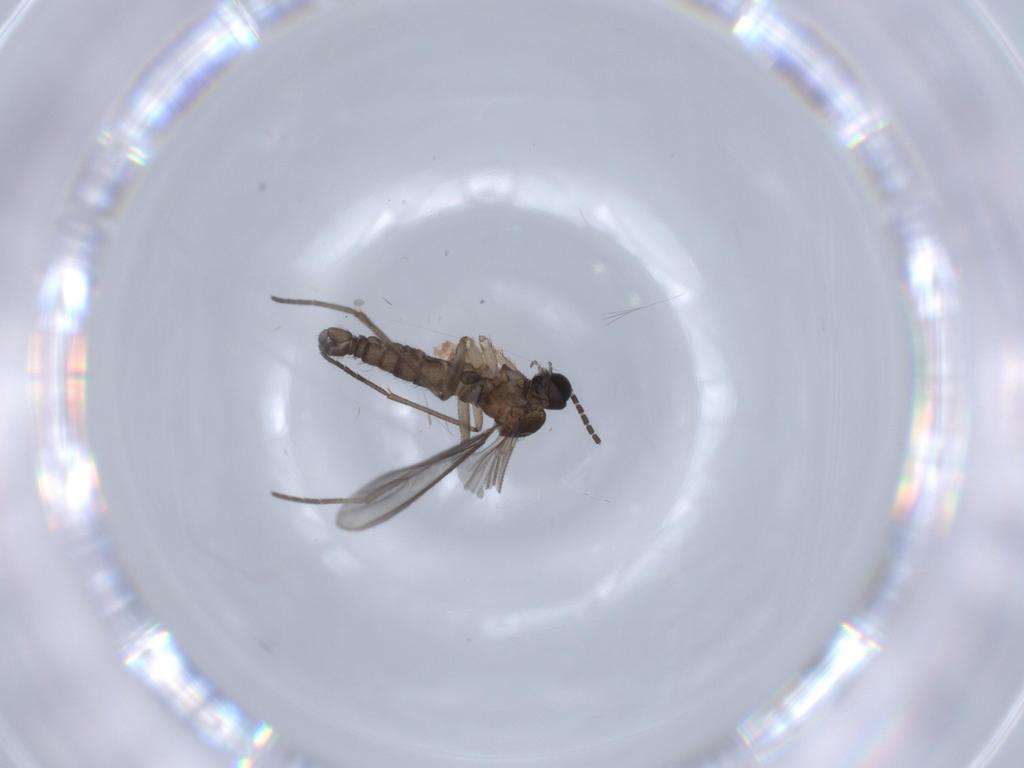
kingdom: Animalia
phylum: Arthropoda
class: Insecta
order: Diptera
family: Sciaridae
